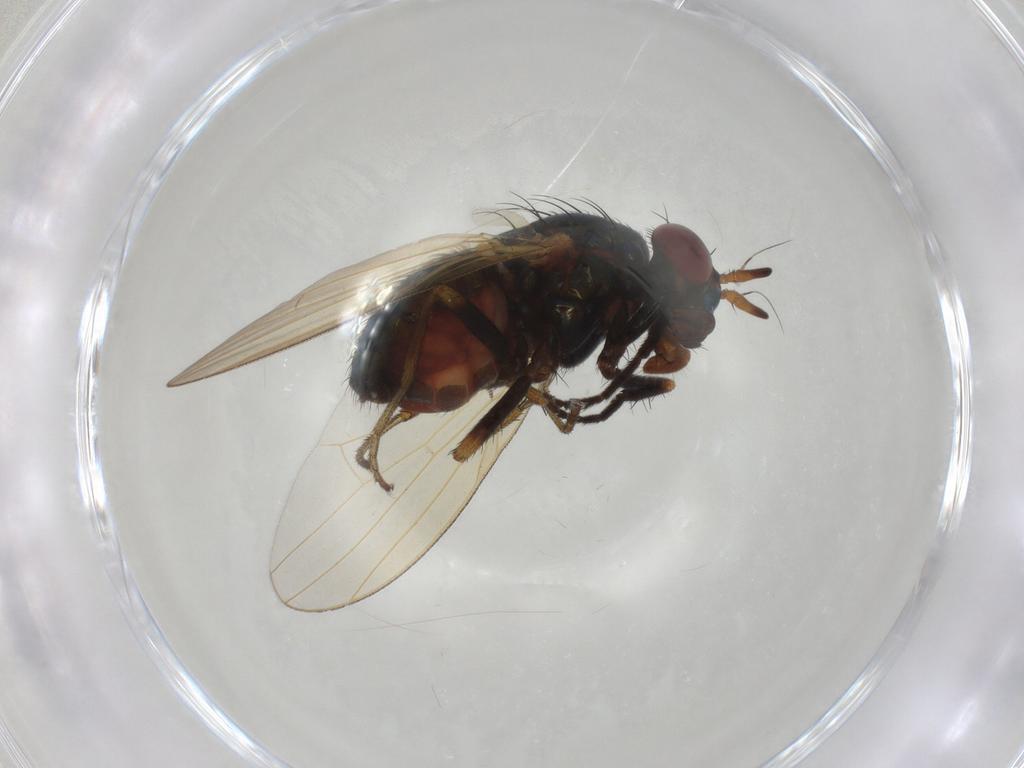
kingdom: Animalia
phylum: Arthropoda
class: Insecta
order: Diptera
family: Lauxaniidae
